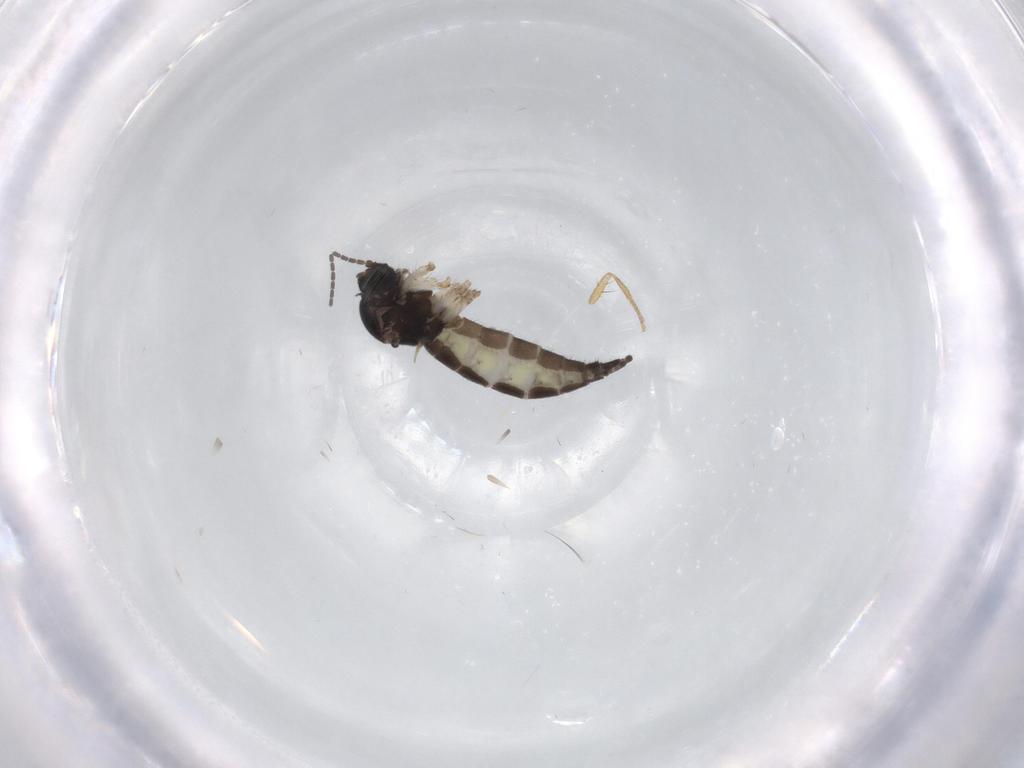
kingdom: Animalia
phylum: Arthropoda
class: Insecta
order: Diptera
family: Sciaridae
